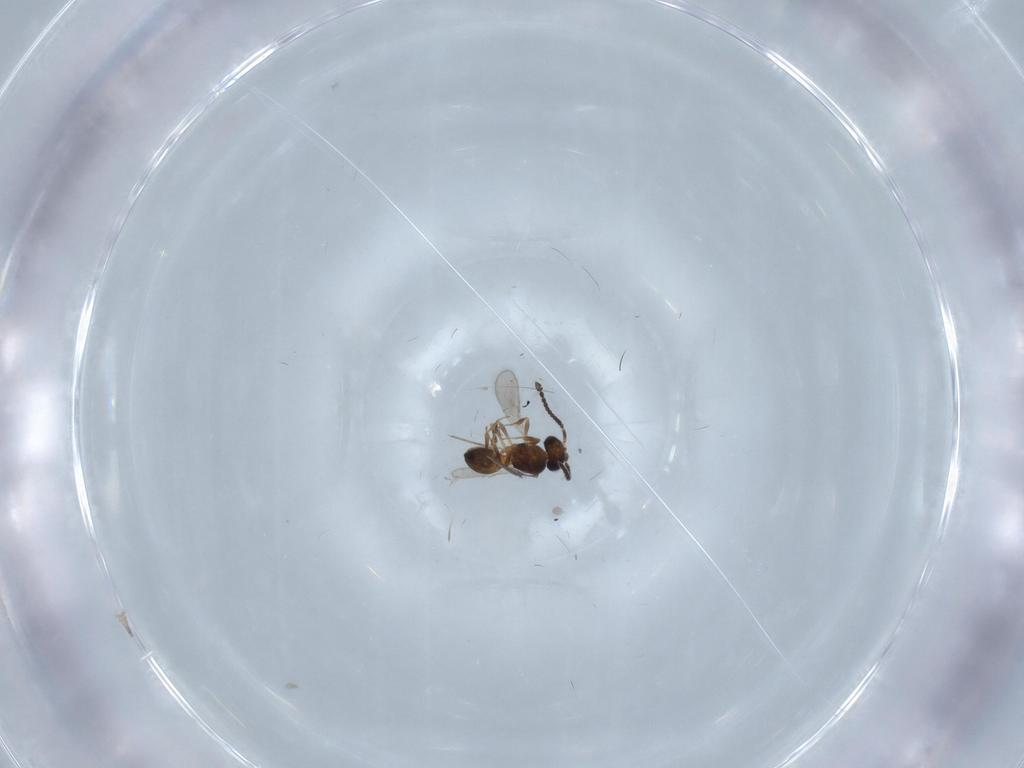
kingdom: Animalia
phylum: Arthropoda
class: Insecta
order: Hymenoptera
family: Scelionidae
